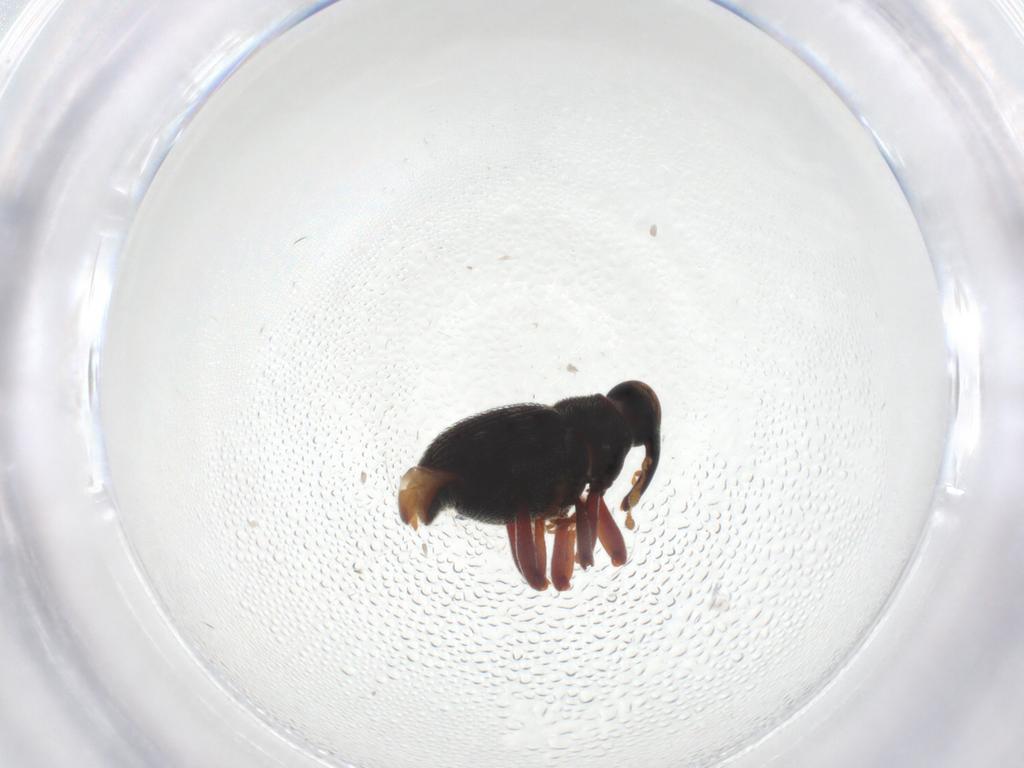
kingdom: Animalia
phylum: Arthropoda
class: Insecta
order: Coleoptera
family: Curculionidae
